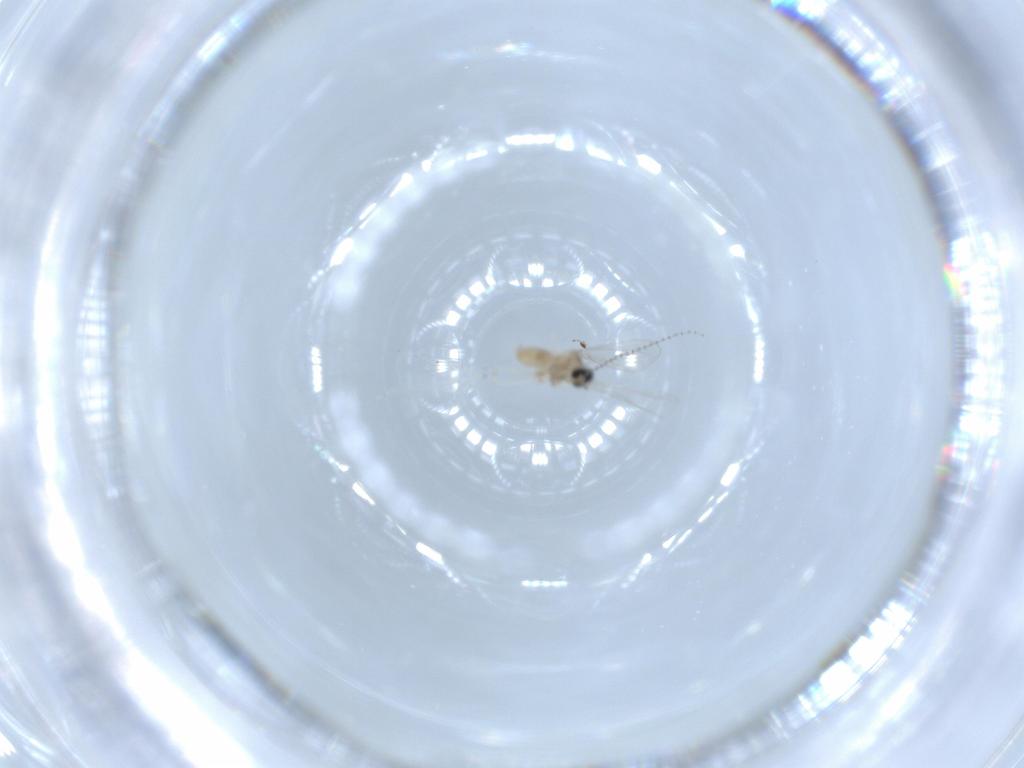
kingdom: Animalia
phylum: Arthropoda
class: Insecta
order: Diptera
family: Cecidomyiidae
